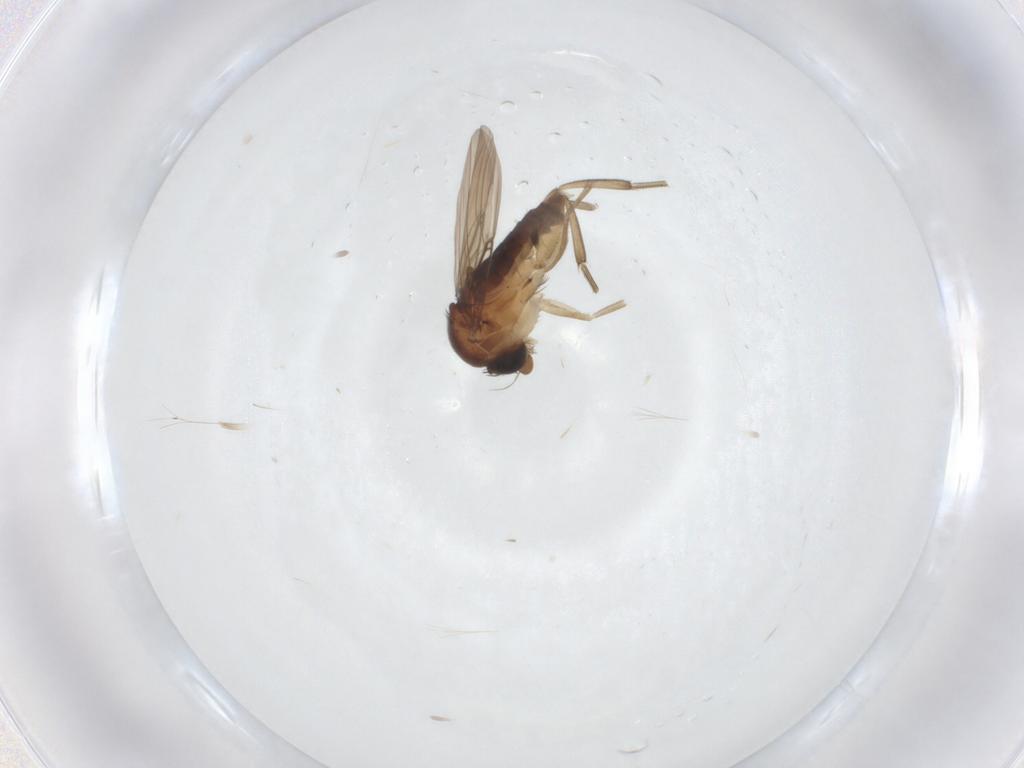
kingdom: Animalia
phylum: Arthropoda
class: Insecta
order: Diptera
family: Phoridae
